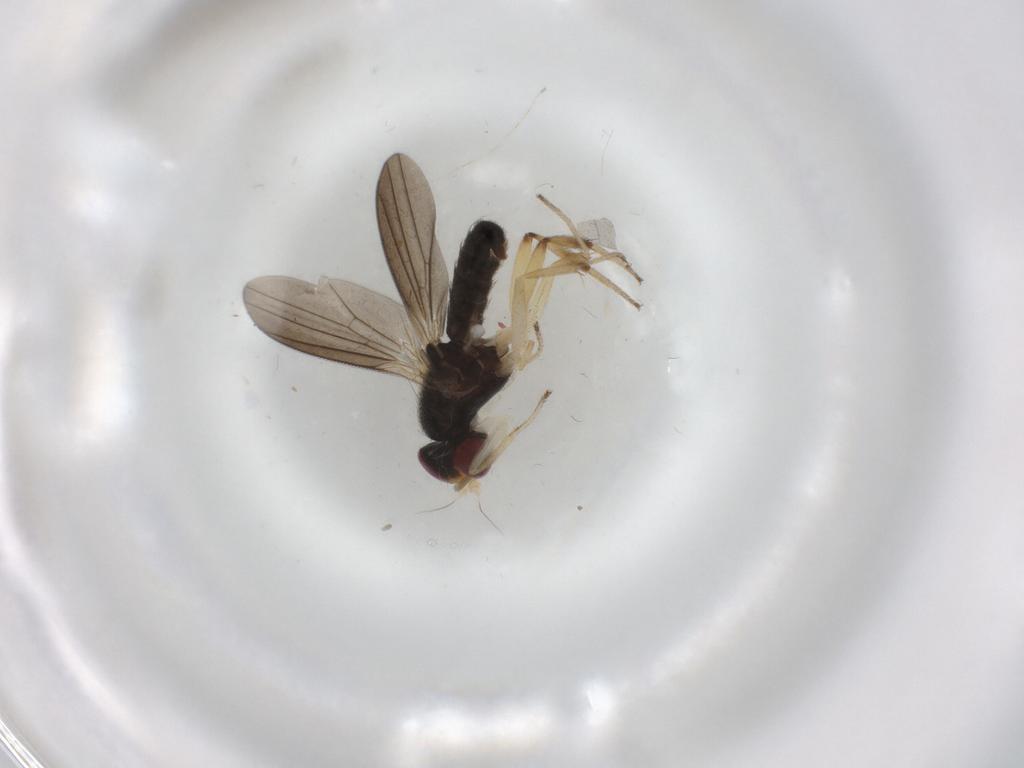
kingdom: Animalia
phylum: Arthropoda
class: Insecta
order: Diptera
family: Clusiidae
